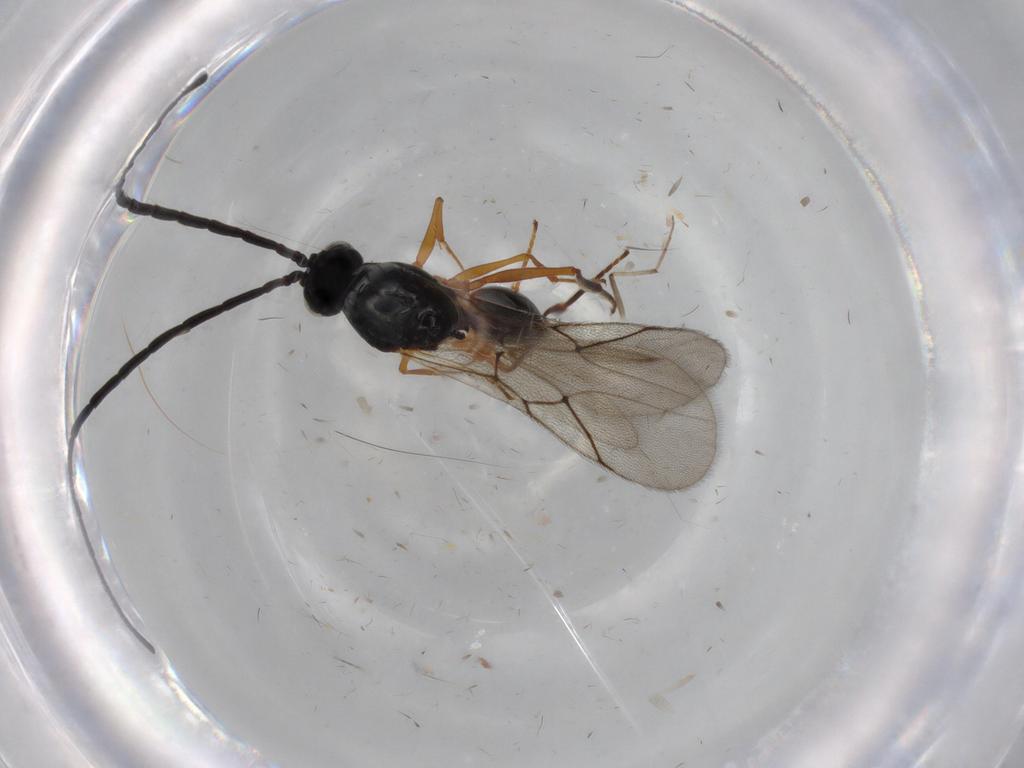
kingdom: Animalia
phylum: Arthropoda
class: Insecta
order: Hymenoptera
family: Figitidae
